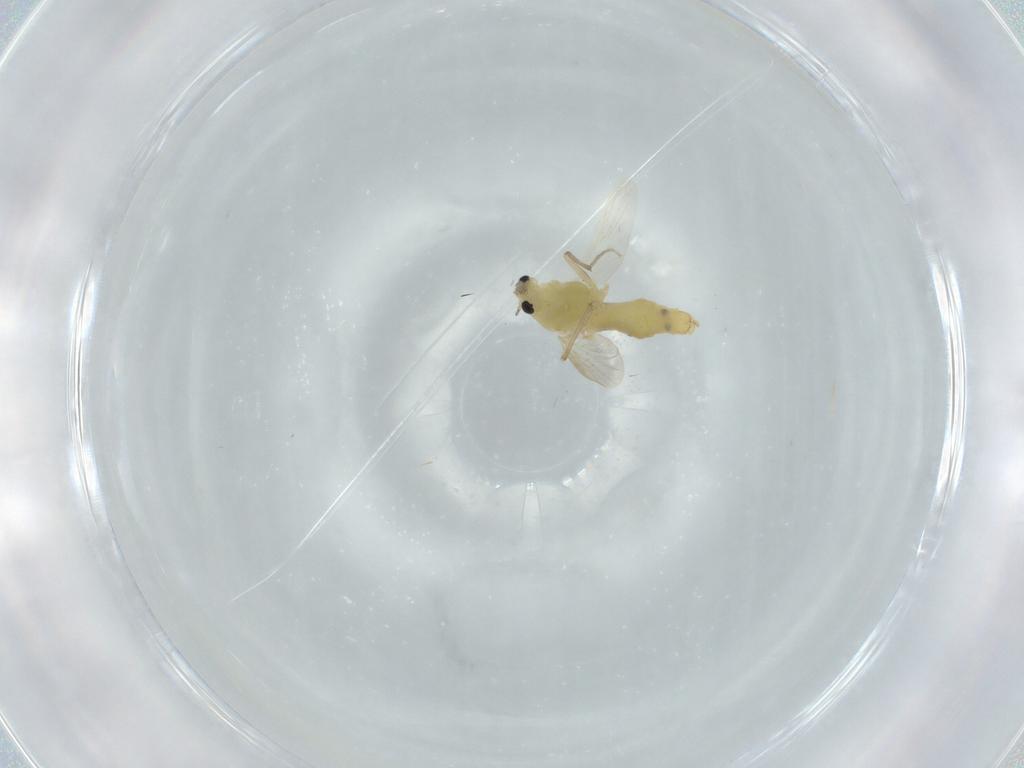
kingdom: Animalia
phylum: Arthropoda
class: Insecta
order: Diptera
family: Chironomidae
